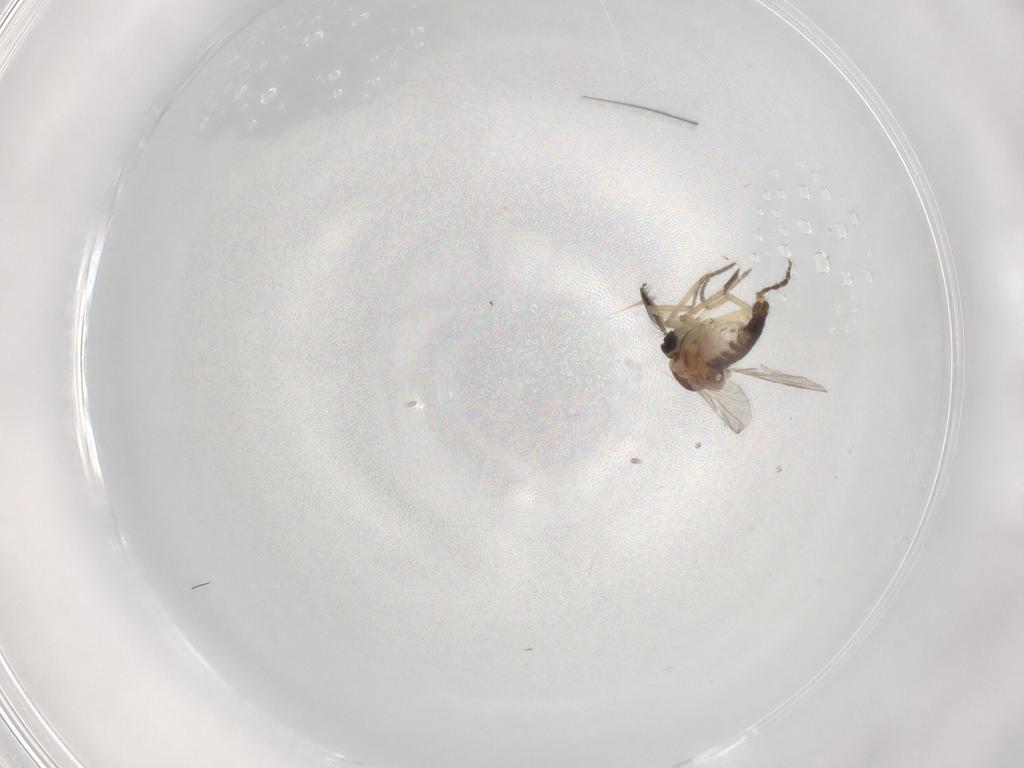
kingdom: Animalia
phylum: Arthropoda
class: Insecta
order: Diptera
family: Psychodidae
